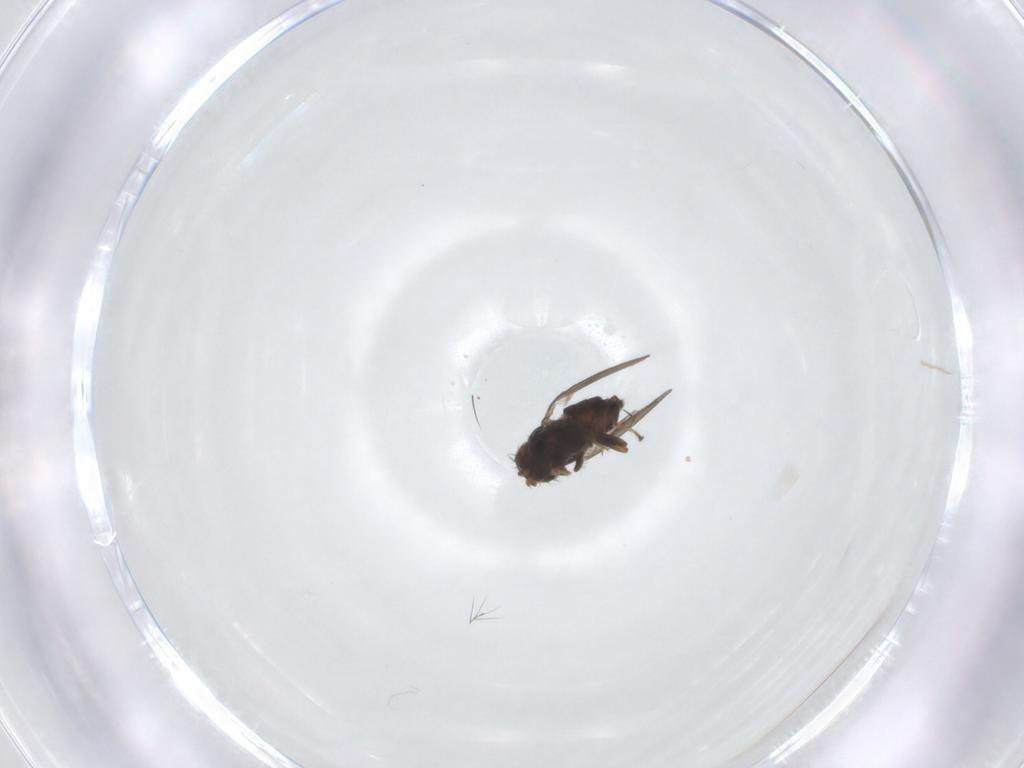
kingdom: Animalia
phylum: Arthropoda
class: Insecta
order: Diptera
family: Ephydridae
